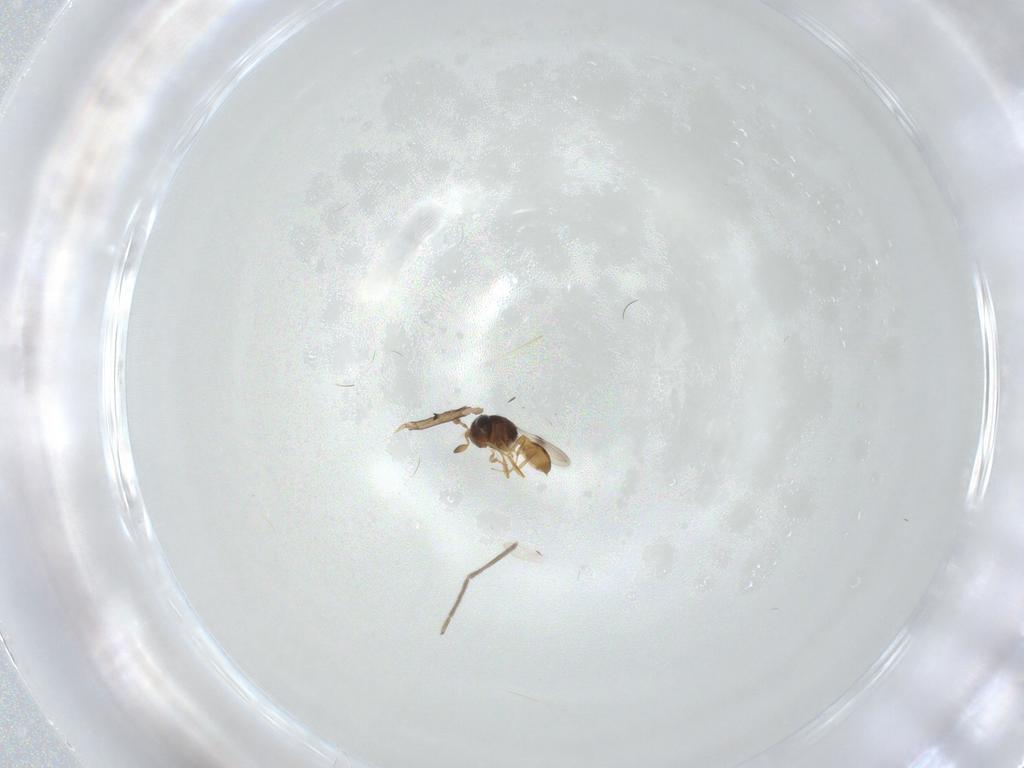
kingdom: Animalia
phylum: Arthropoda
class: Insecta
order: Hymenoptera
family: Scelionidae
